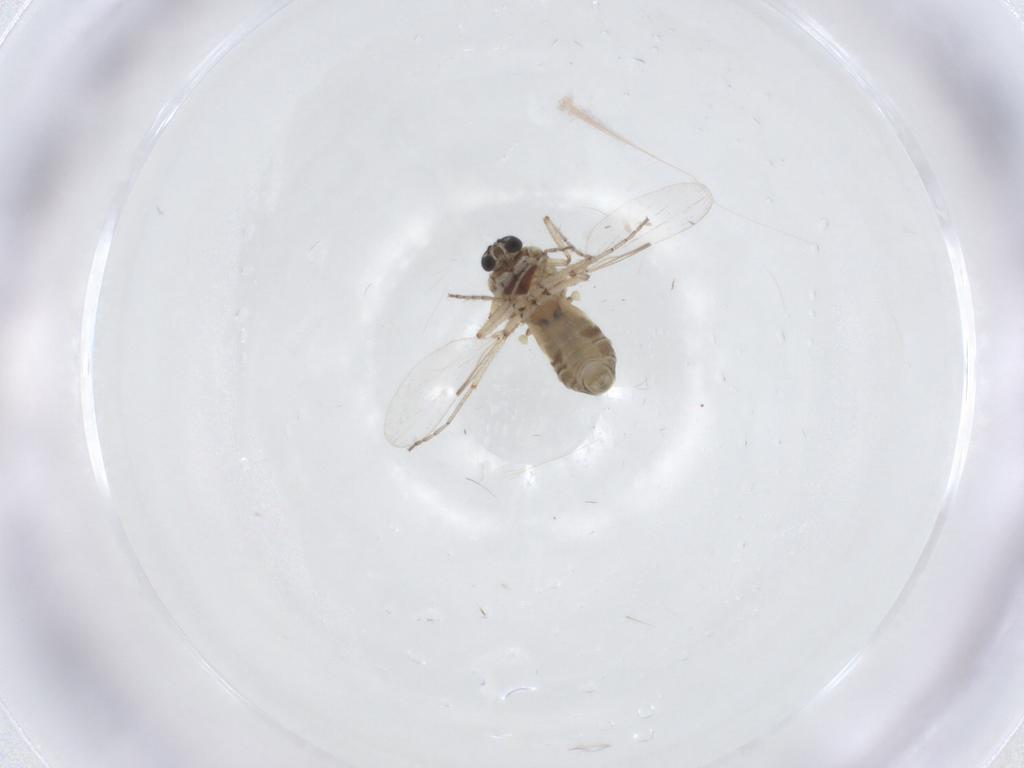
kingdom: Animalia
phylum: Arthropoda
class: Insecta
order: Diptera
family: Ceratopogonidae
